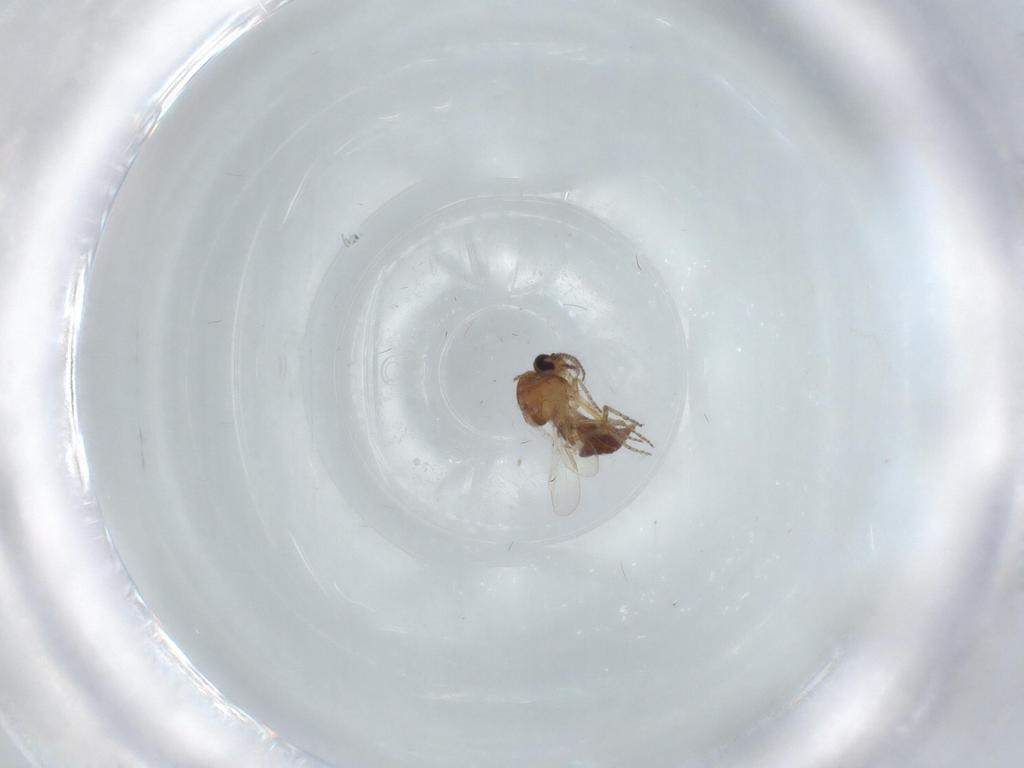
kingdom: Animalia
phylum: Arthropoda
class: Insecta
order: Diptera
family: Ceratopogonidae
